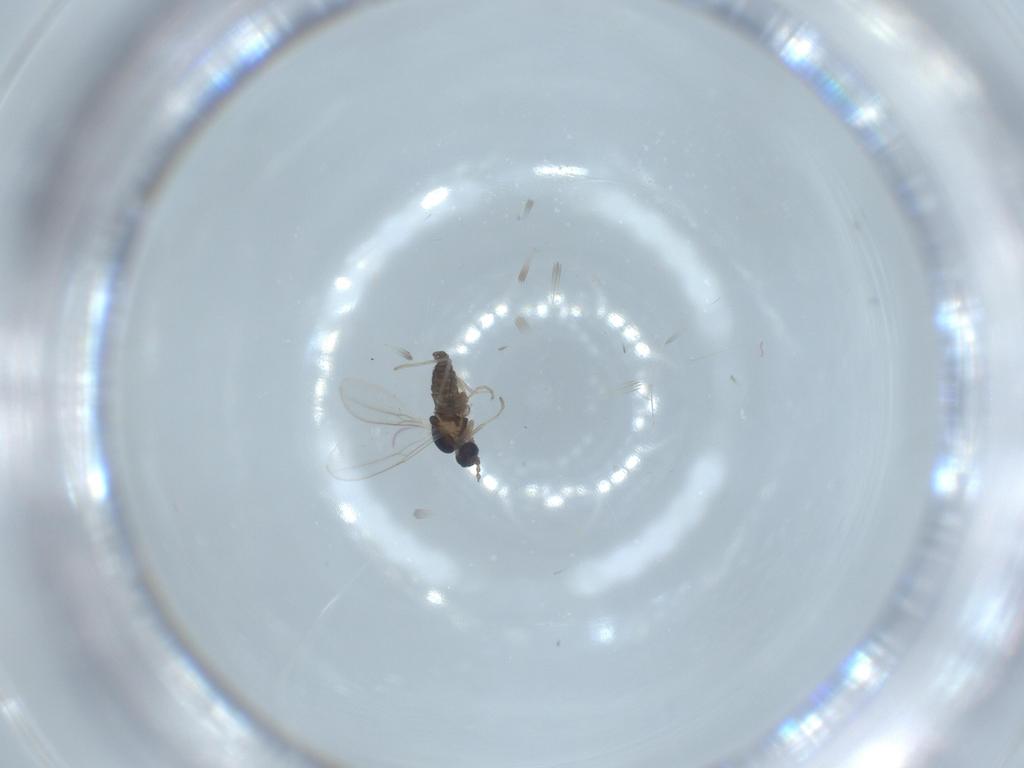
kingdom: Animalia
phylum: Arthropoda
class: Insecta
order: Diptera
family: Cecidomyiidae
